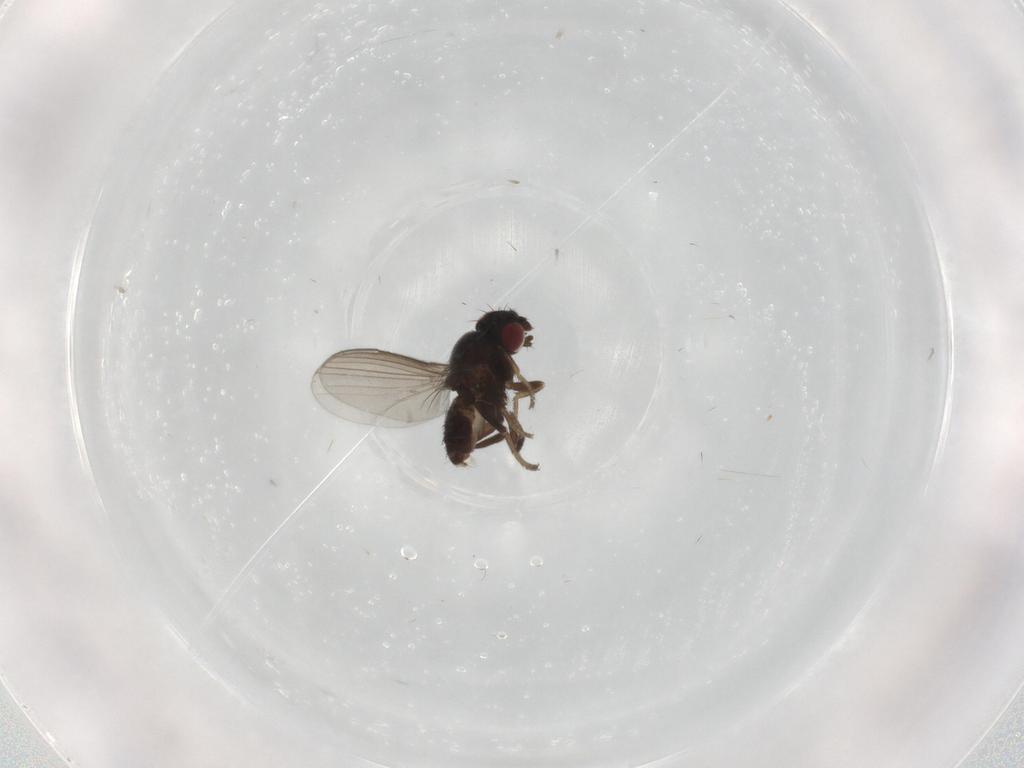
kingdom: Animalia
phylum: Arthropoda
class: Insecta
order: Diptera
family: Milichiidae
